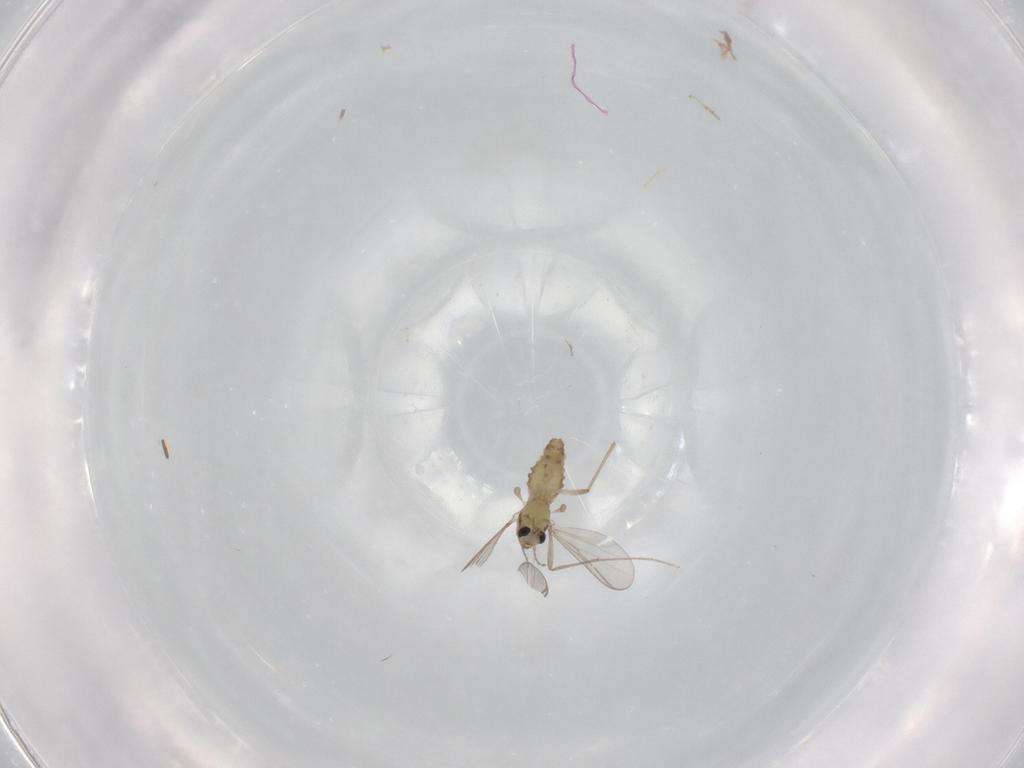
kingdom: Animalia
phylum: Arthropoda
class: Insecta
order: Diptera
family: Chironomidae
